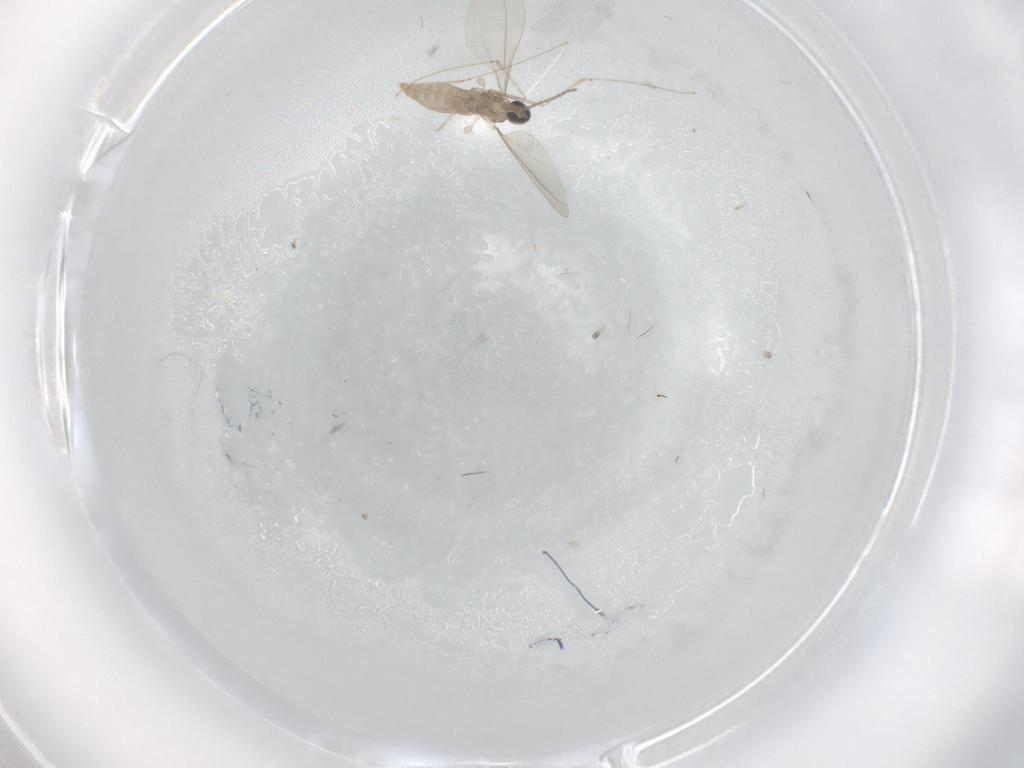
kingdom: Animalia
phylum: Arthropoda
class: Insecta
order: Diptera
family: Cecidomyiidae
